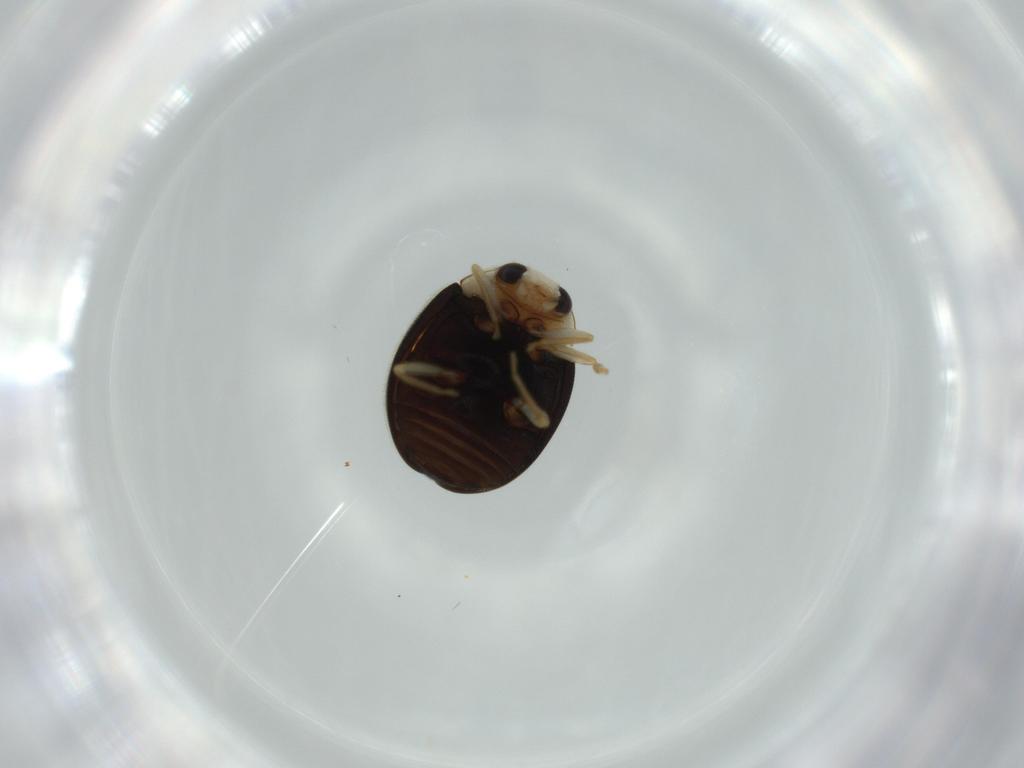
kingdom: Animalia
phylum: Arthropoda
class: Insecta
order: Coleoptera
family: Coccinellidae
